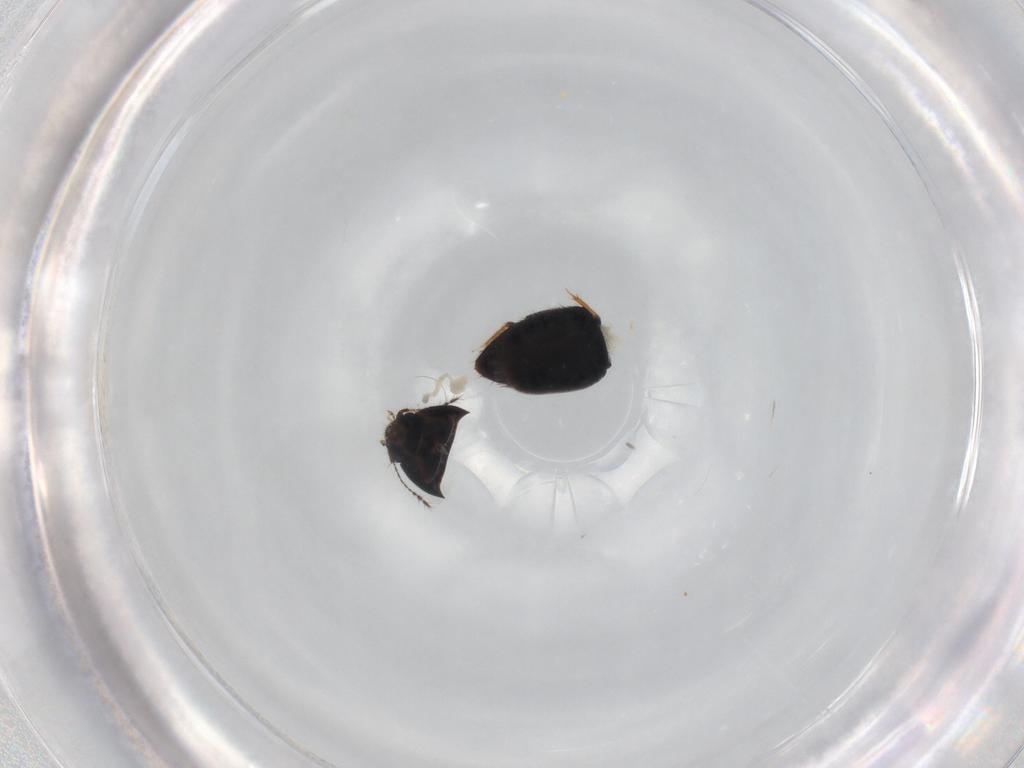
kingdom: Animalia
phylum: Arthropoda
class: Insecta
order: Coleoptera
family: Ptiliidae
